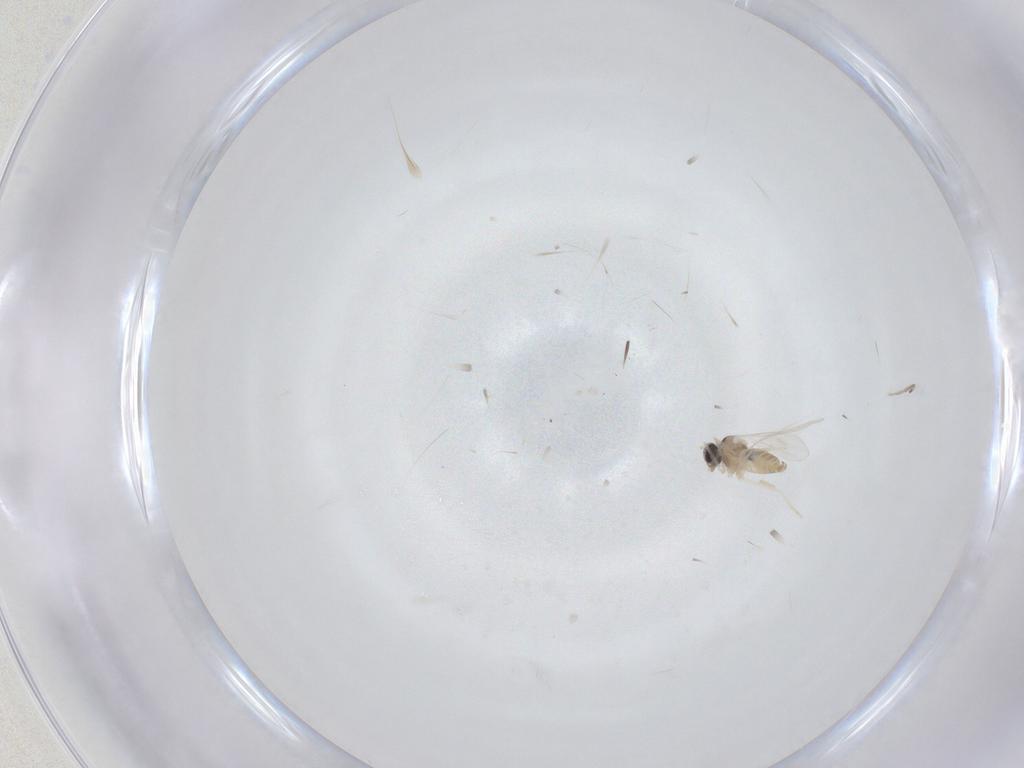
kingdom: Animalia
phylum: Arthropoda
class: Insecta
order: Diptera
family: Cecidomyiidae
